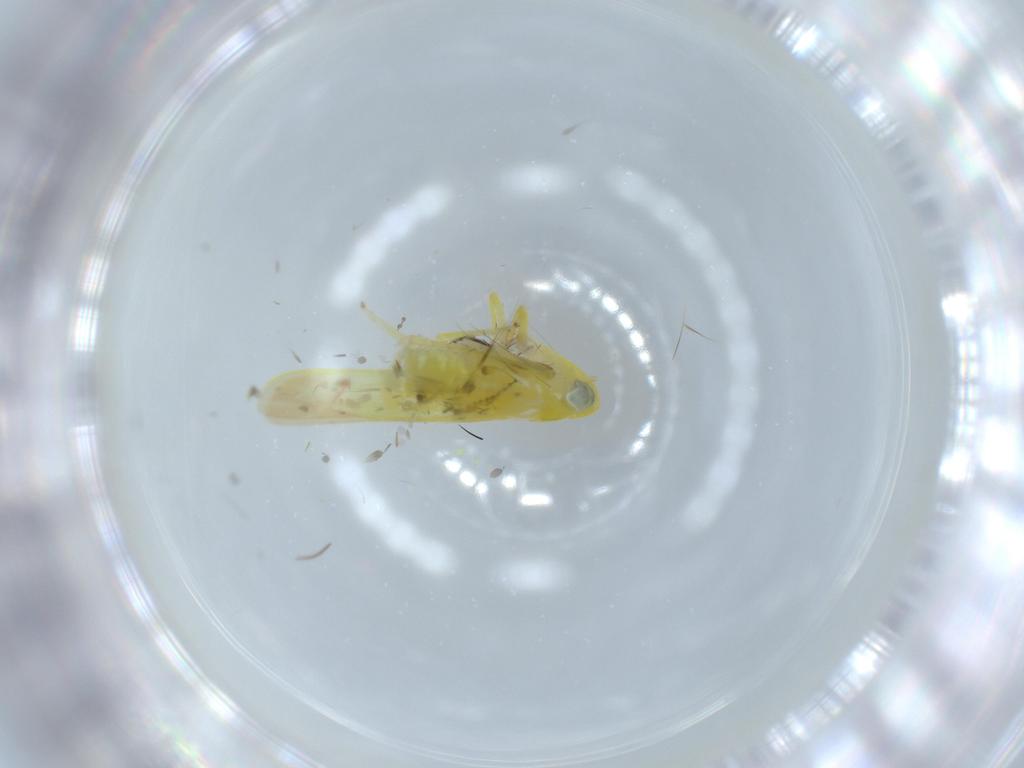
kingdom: Animalia
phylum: Arthropoda
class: Insecta
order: Hemiptera
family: Cicadellidae
